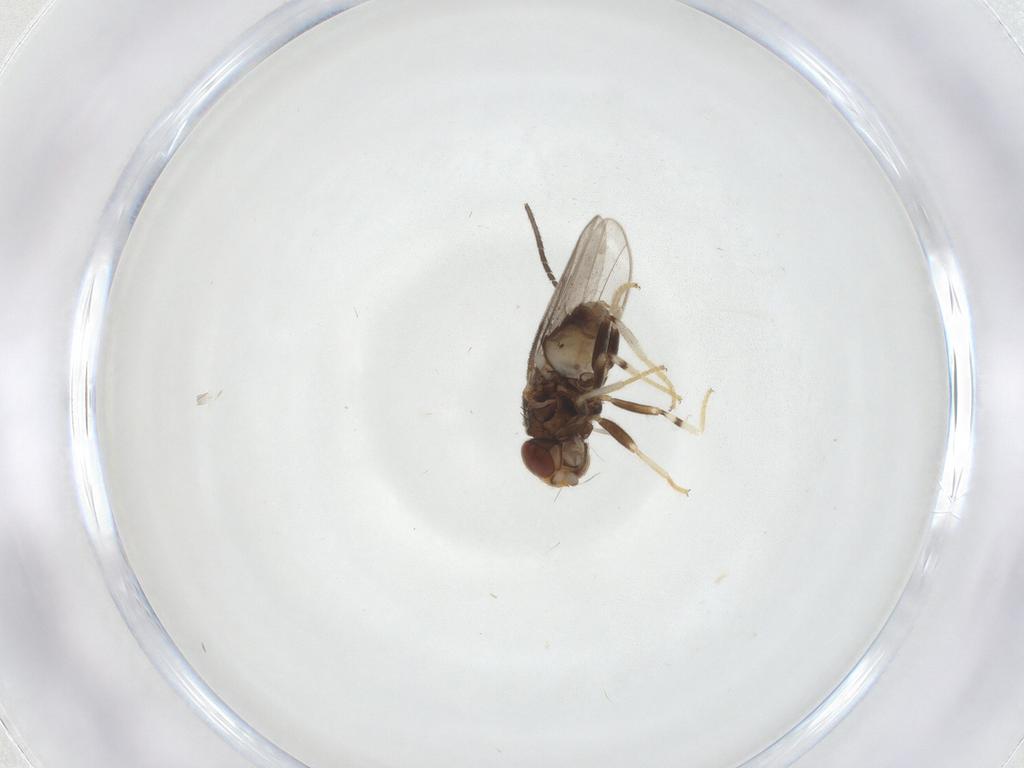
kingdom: Animalia
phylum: Arthropoda
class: Insecta
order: Diptera
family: Chloropidae
